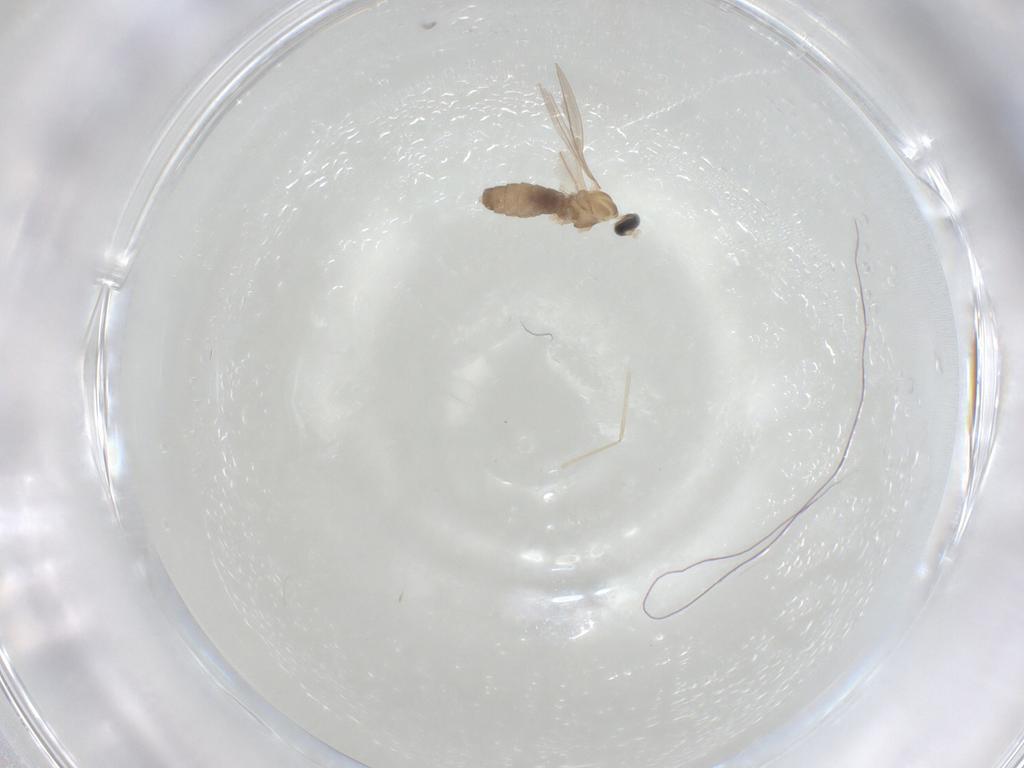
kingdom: Animalia
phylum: Arthropoda
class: Insecta
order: Diptera
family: Cecidomyiidae
